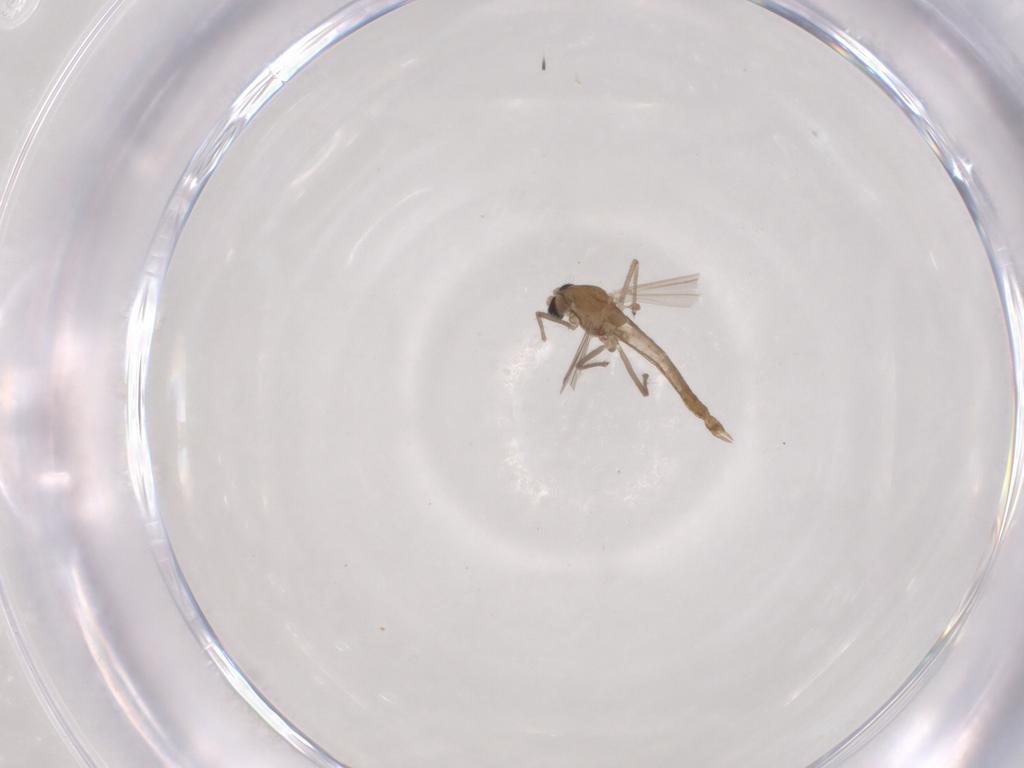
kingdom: Animalia
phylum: Arthropoda
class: Insecta
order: Diptera
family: Chironomidae
